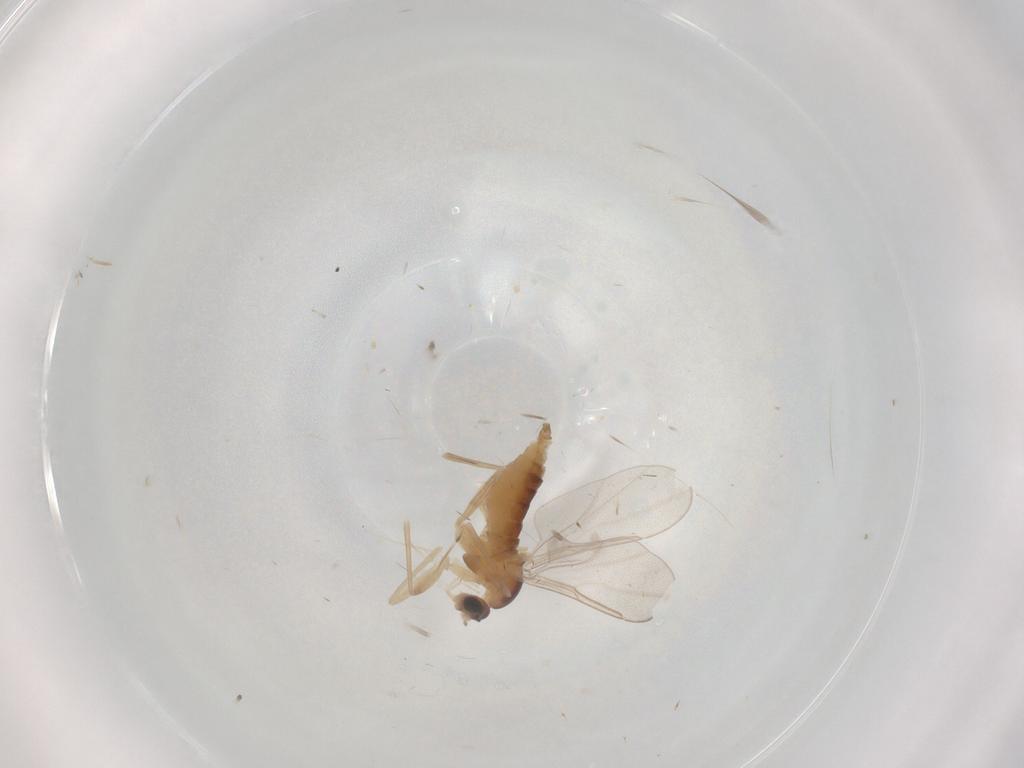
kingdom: Animalia
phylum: Arthropoda
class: Insecta
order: Diptera
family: Cecidomyiidae
